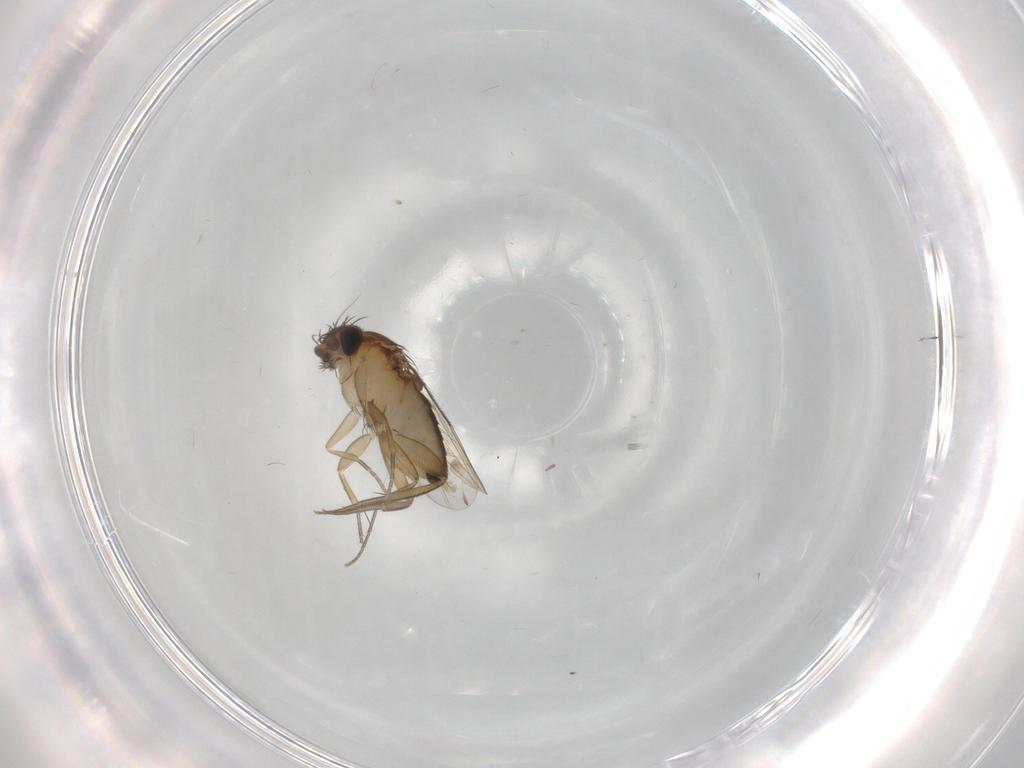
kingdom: Animalia
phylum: Arthropoda
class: Insecta
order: Diptera
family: Phoridae
